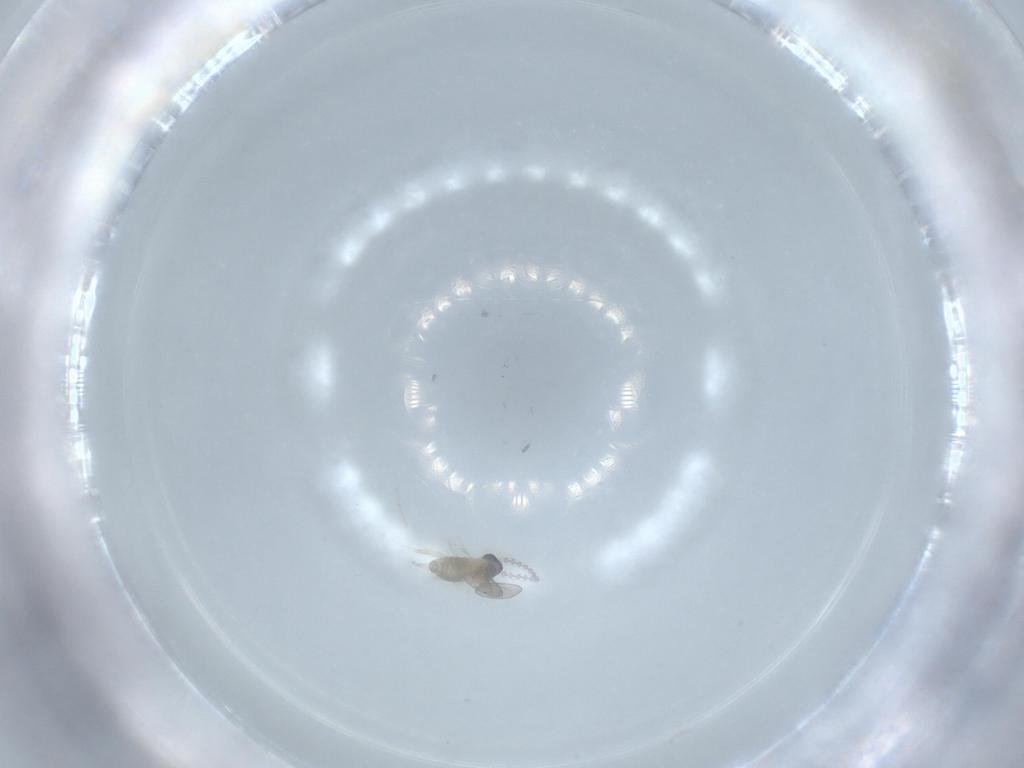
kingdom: Animalia
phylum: Arthropoda
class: Insecta
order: Diptera
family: Cecidomyiidae
